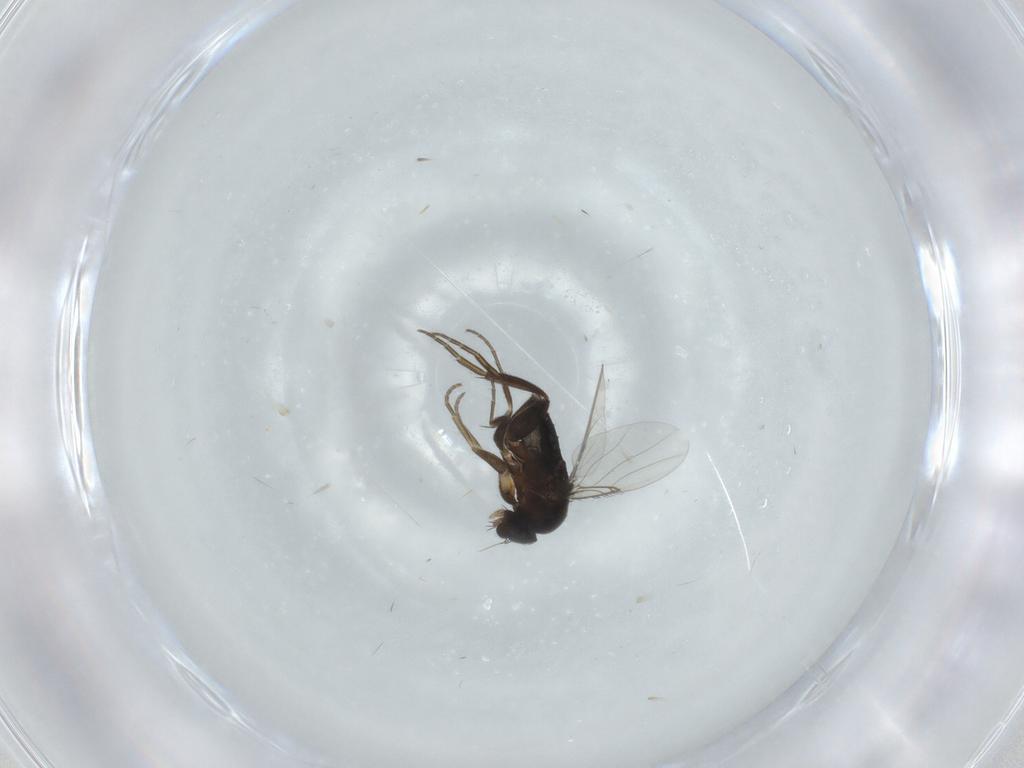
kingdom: Animalia
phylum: Arthropoda
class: Insecta
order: Diptera
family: Phoridae
